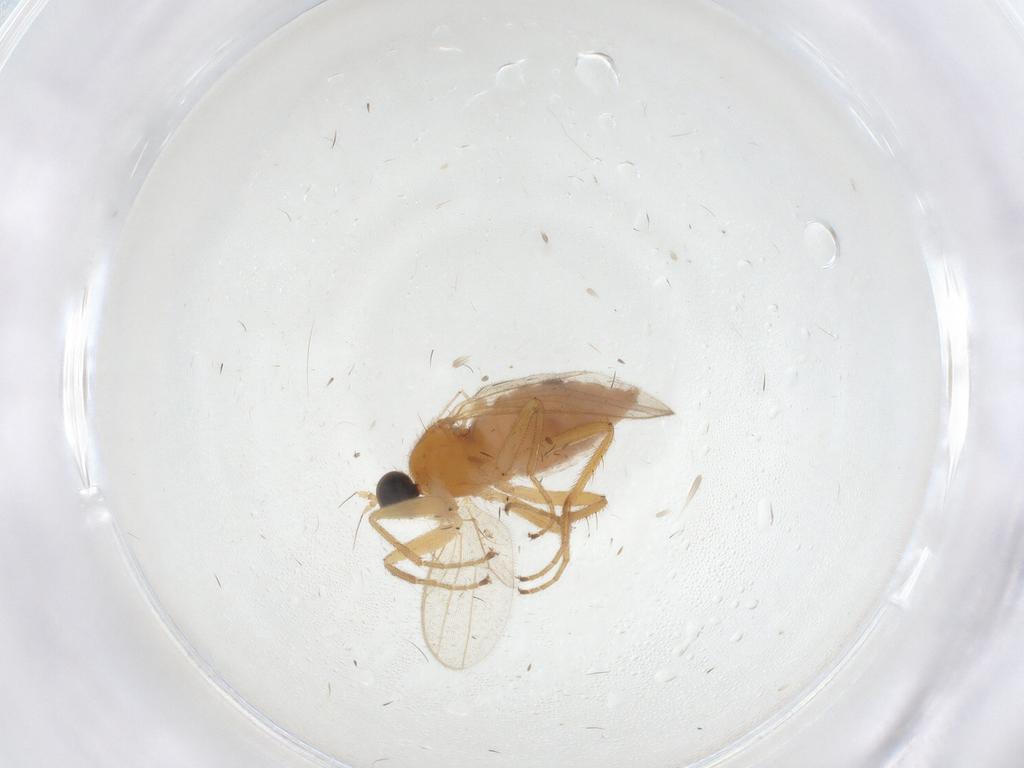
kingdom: Animalia
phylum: Arthropoda
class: Insecta
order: Diptera
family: Hybotidae
